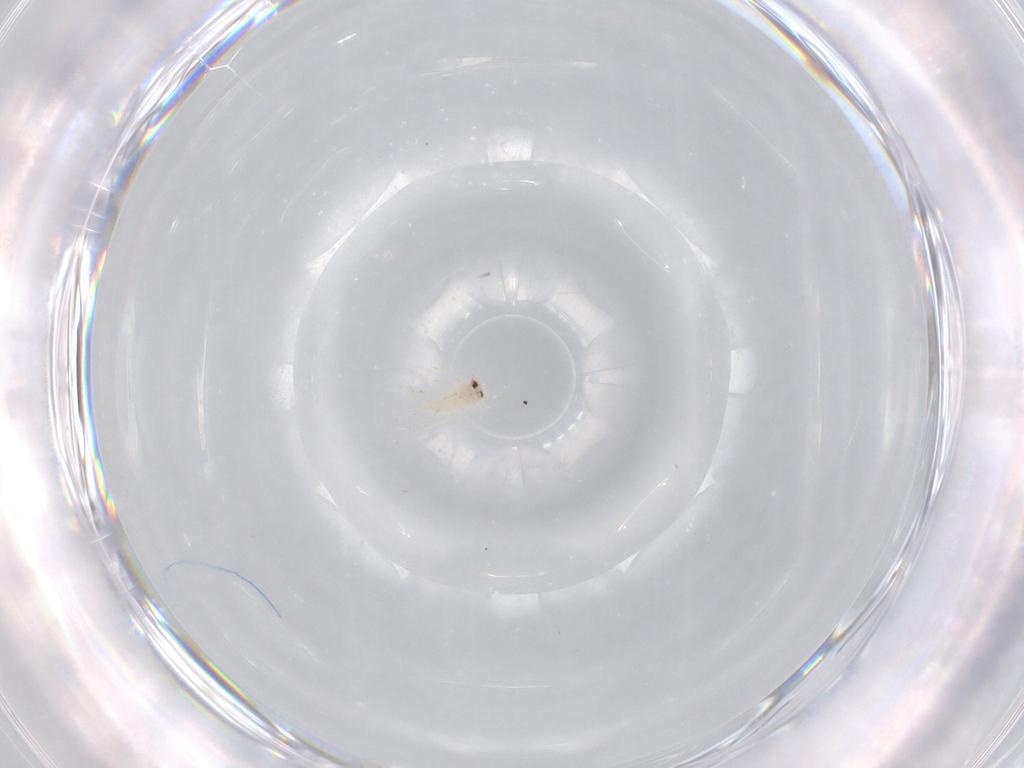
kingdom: Animalia
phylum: Arthropoda
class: Insecta
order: Hemiptera
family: Aleyrodidae
